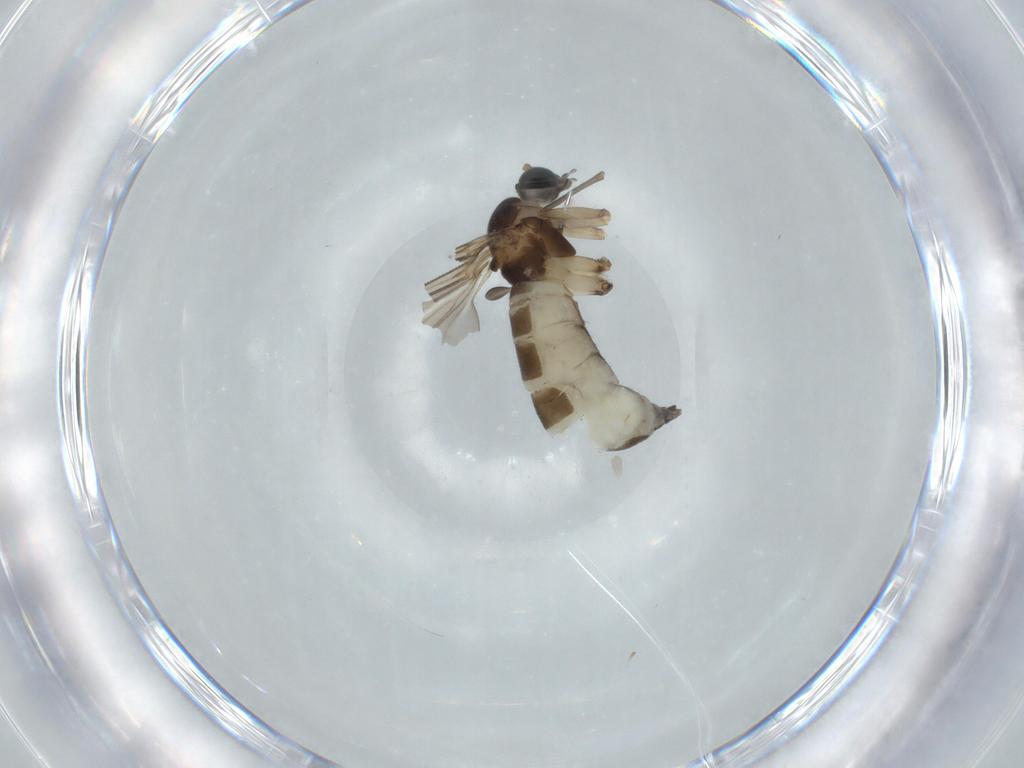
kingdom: Animalia
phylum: Arthropoda
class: Insecta
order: Diptera
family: Sciaridae
